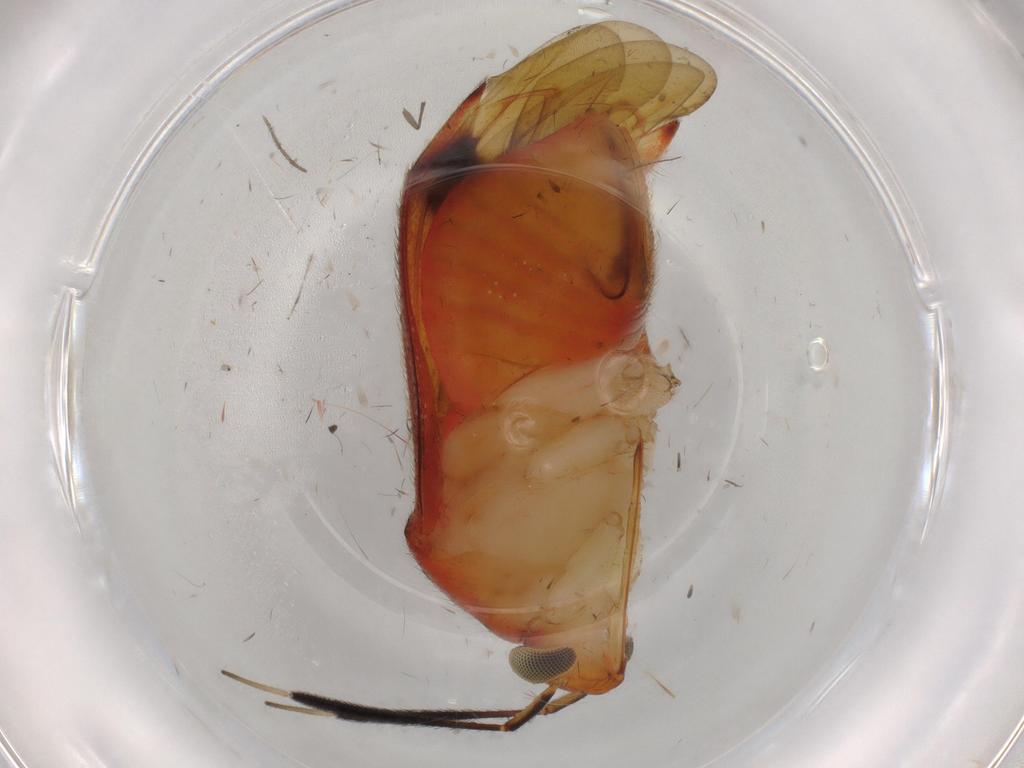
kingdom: Animalia
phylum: Arthropoda
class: Insecta
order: Hemiptera
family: Miridae
